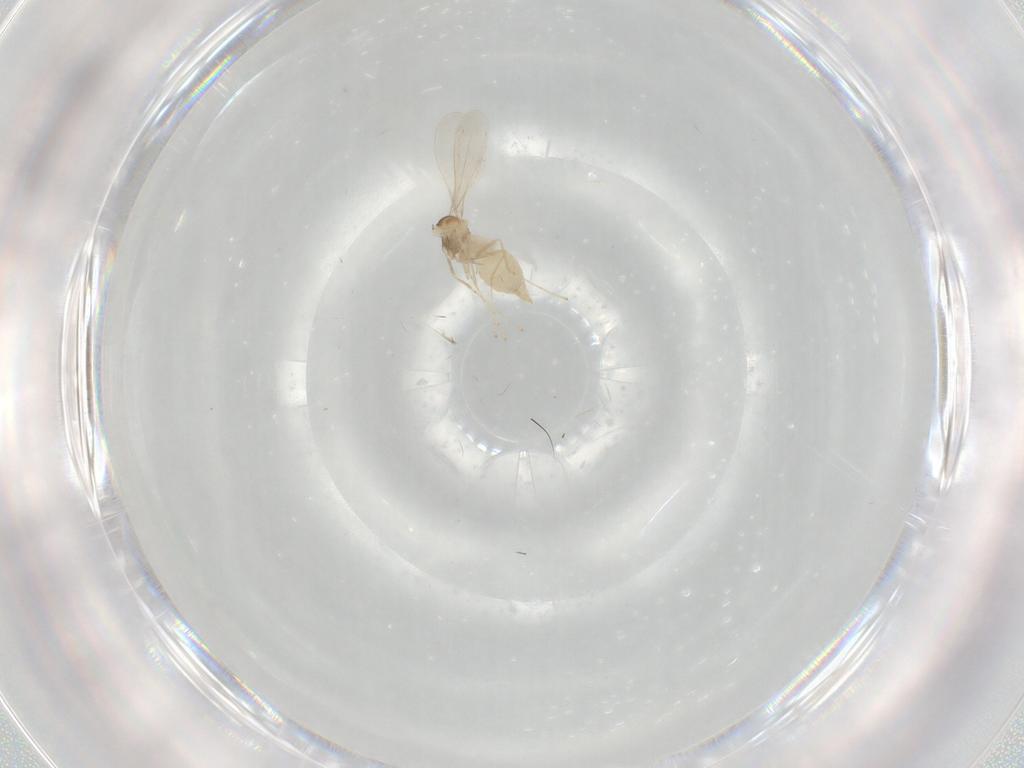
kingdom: Animalia
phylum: Arthropoda
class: Insecta
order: Diptera
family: Cecidomyiidae
